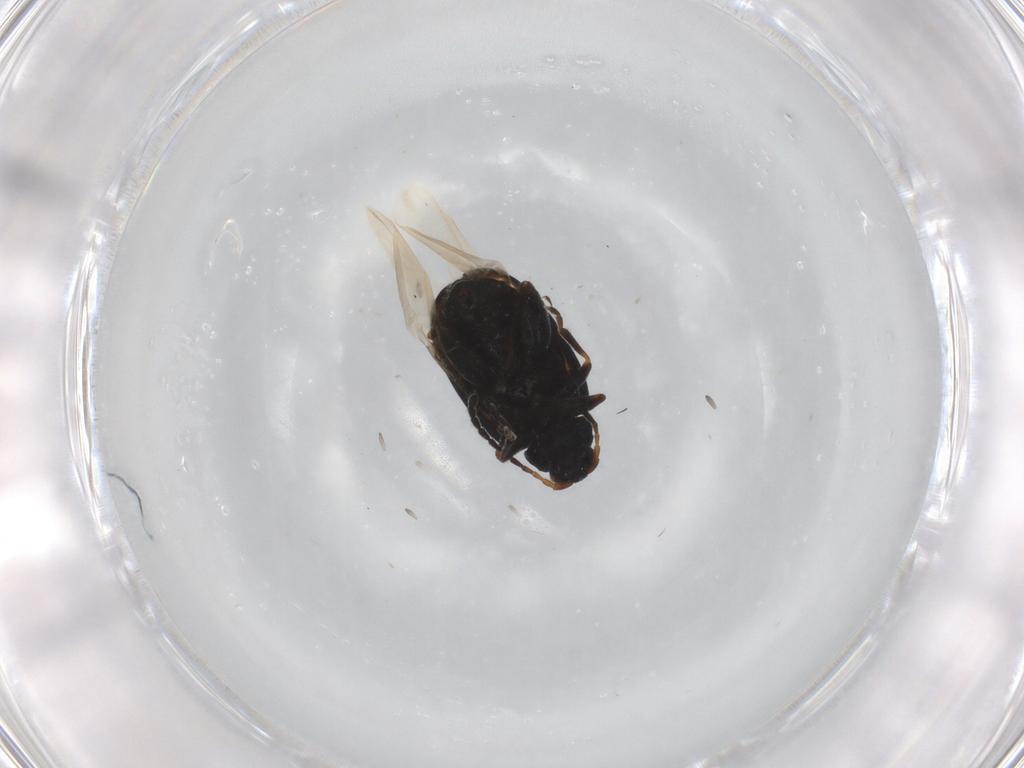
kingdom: Animalia
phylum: Arthropoda
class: Insecta
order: Coleoptera
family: Chrysomelidae
